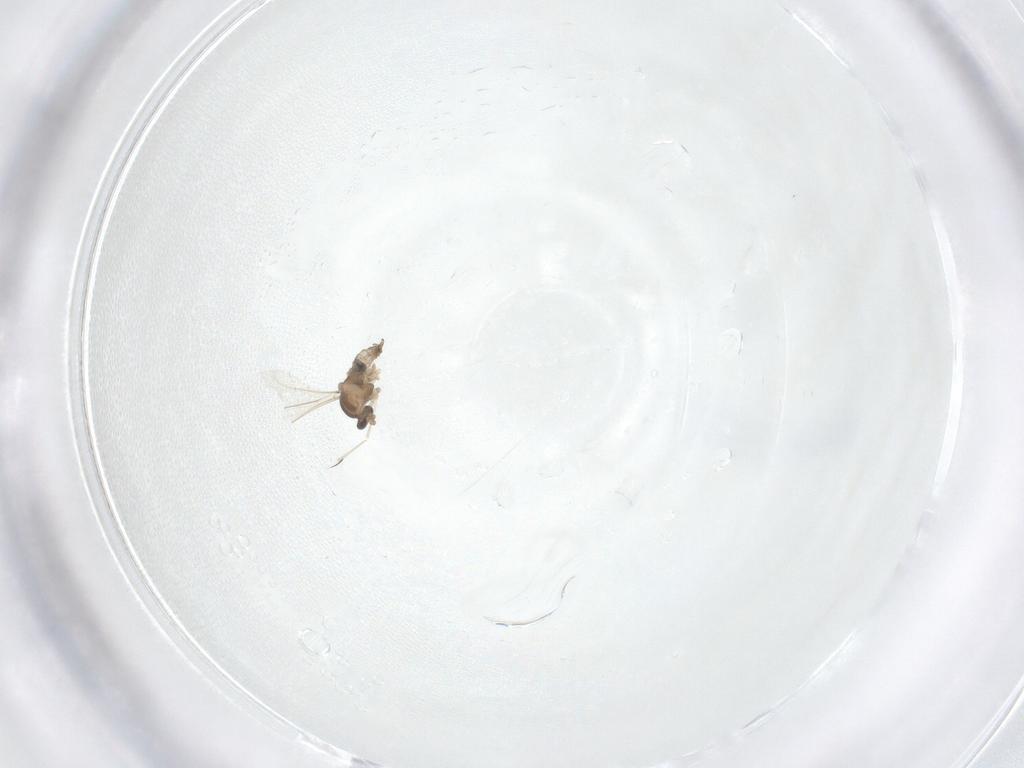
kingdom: Animalia
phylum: Arthropoda
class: Insecta
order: Diptera
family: Cecidomyiidae
